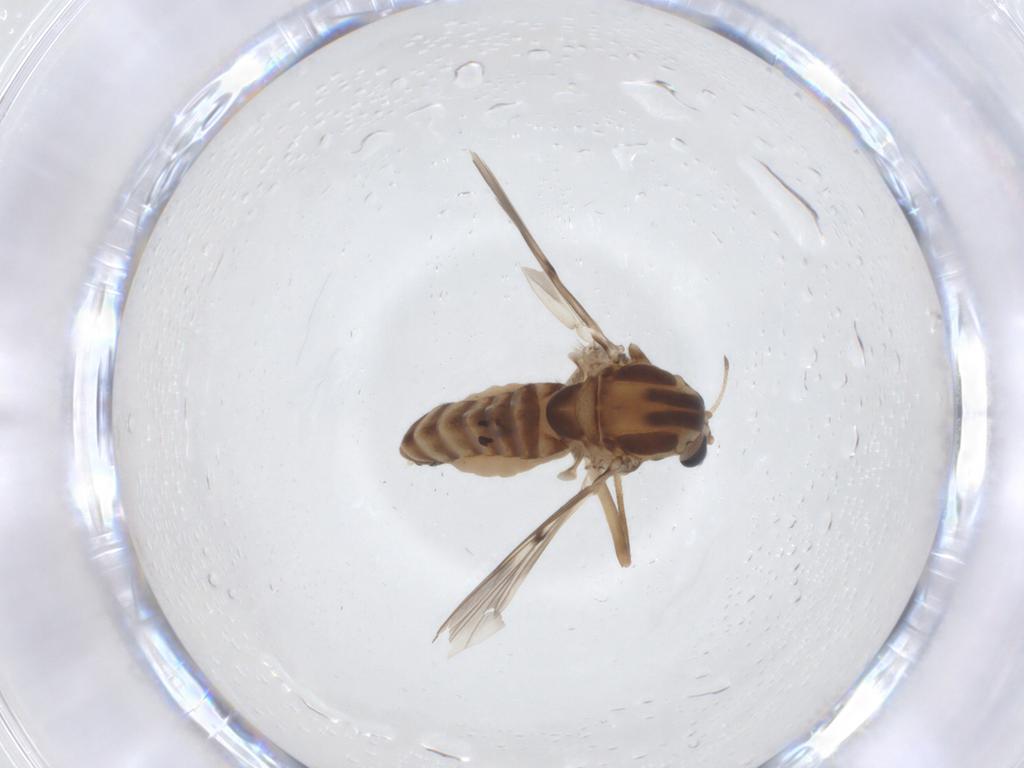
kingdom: Animalia
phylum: Arthropoda
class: Insecta
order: Diptera
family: Chironomidae
